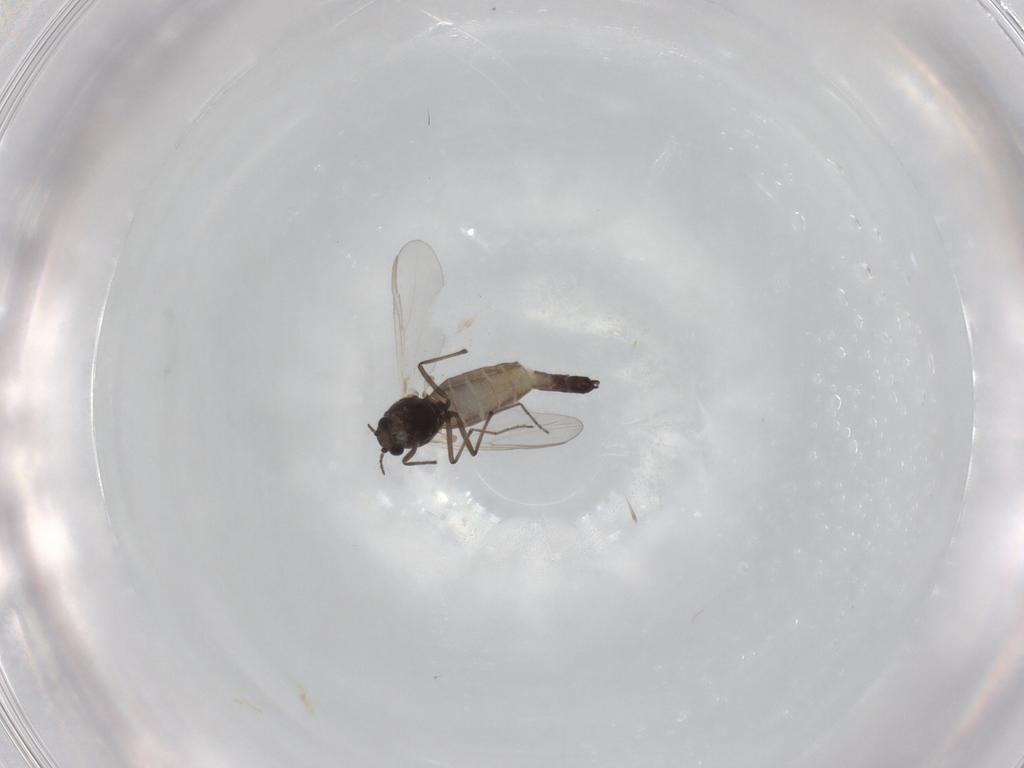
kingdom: Animalia
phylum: Arthropoda
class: Insecta
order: Diptera
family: Chironomidae
